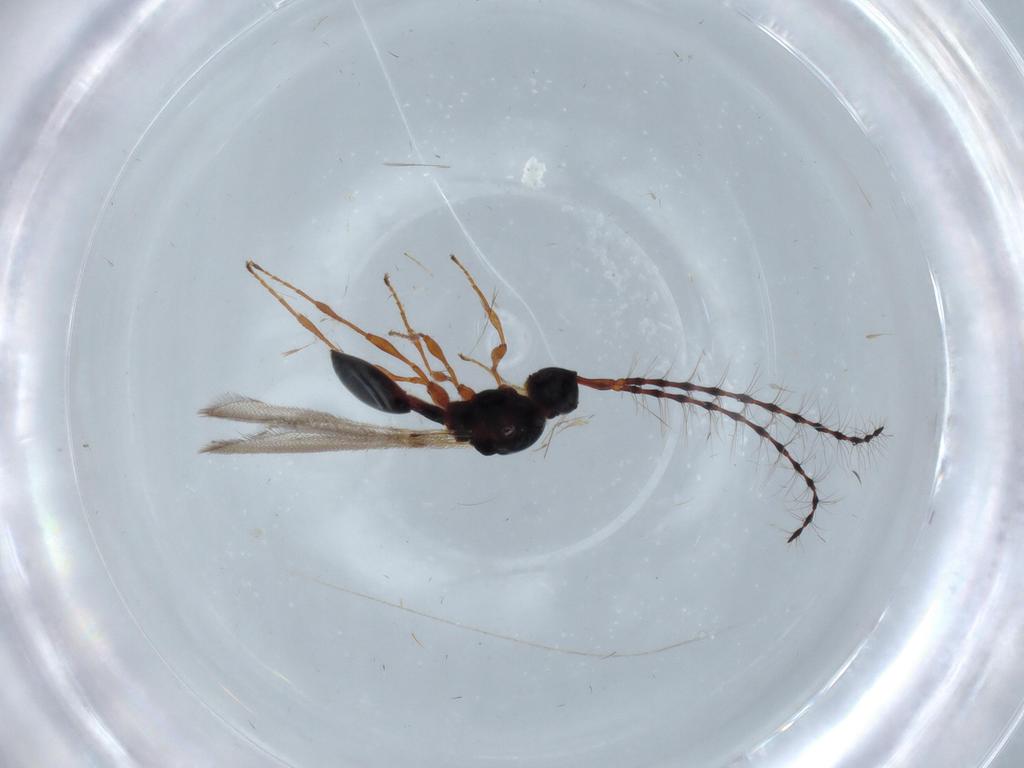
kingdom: Animalia
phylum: Arthropoda
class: Insecta
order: Hymenoptera
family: Diapriidae
